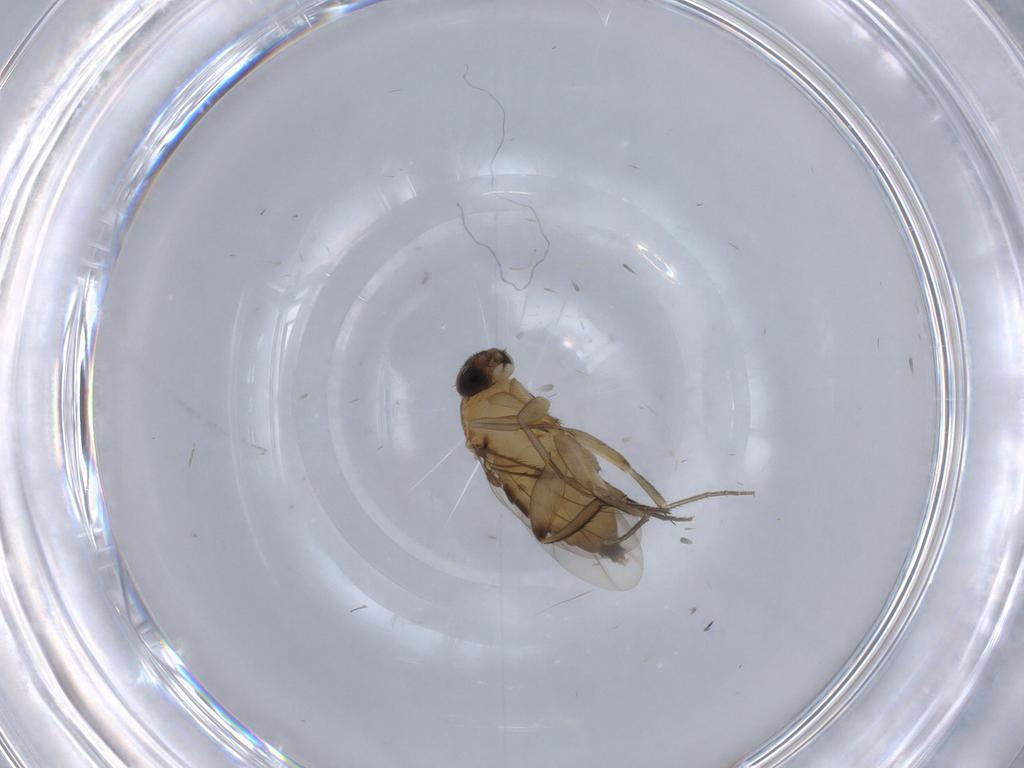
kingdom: Animalia
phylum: Arthropoda
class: Insecta
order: Diptera
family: Phoridae
